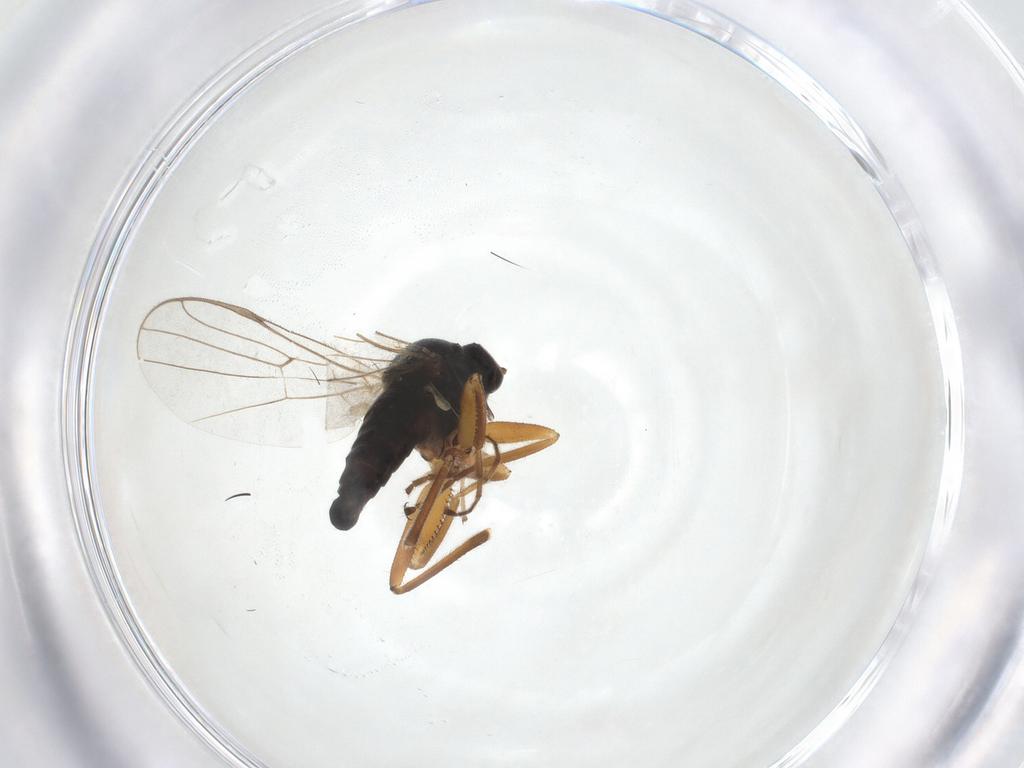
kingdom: Animalia
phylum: Arthropoda
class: Insecta
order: Diptera
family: Hybotidae
